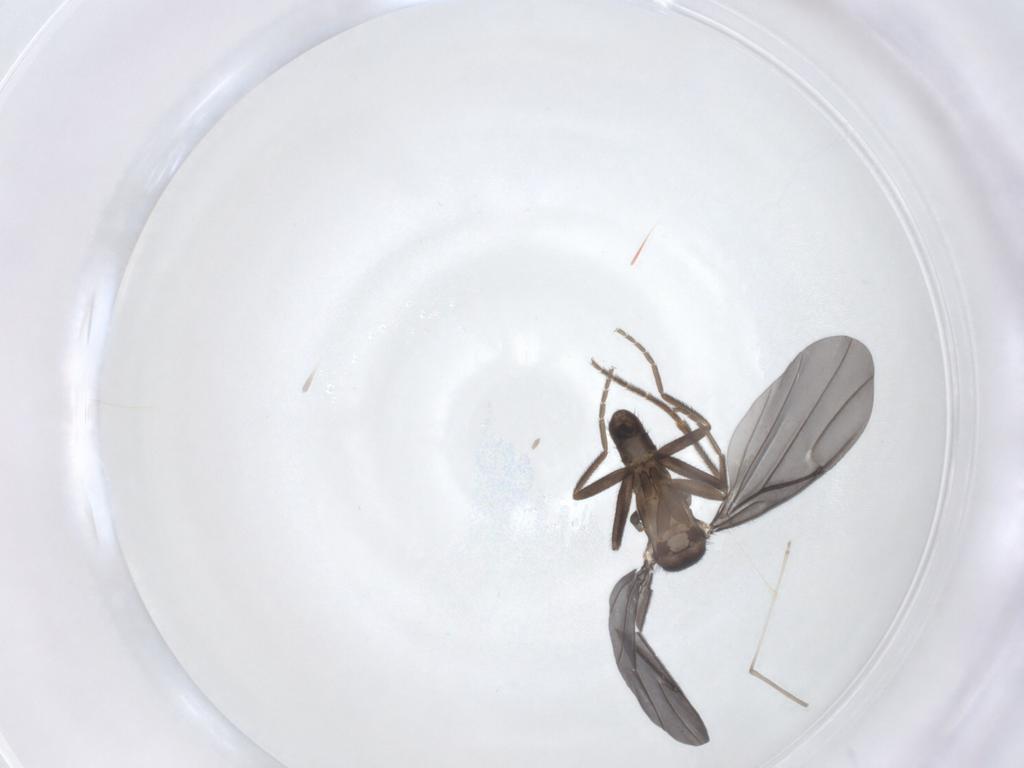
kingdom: Animalia
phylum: Arthropoda
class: Insecta
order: Diptera
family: Phoridae
